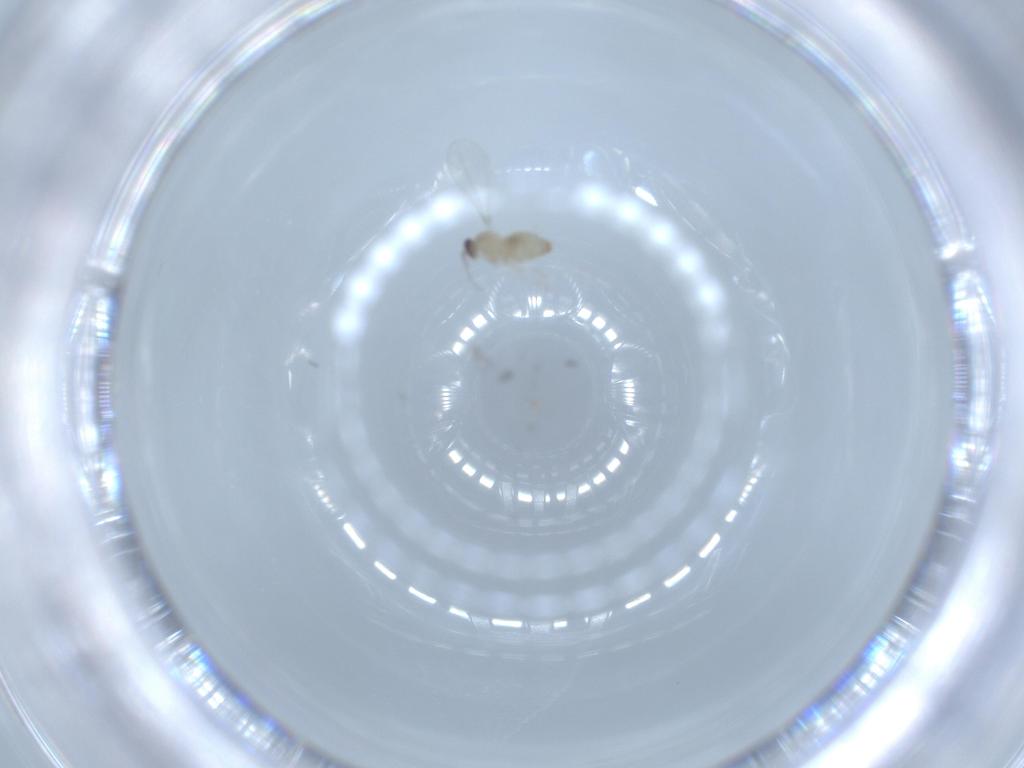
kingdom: Animalia
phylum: Arthropoda
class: Insecta
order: Diptera
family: Cecidomyiidae
